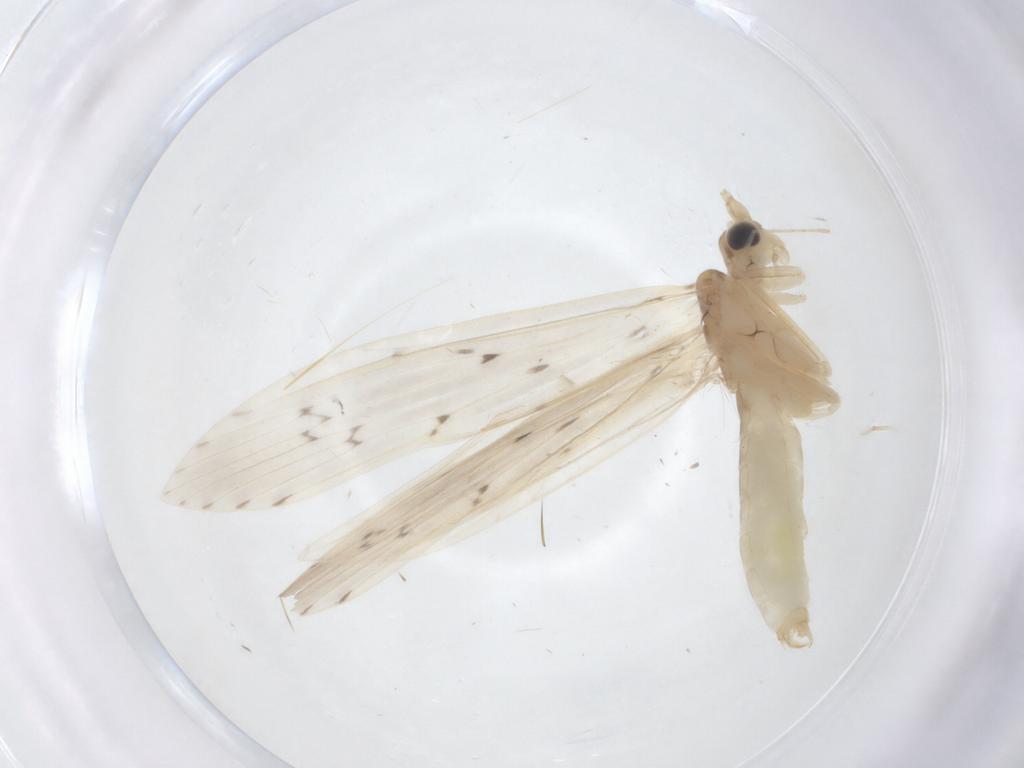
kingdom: Animalia
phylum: Arthropoda
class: Insecta
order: Trichoptera
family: Leptoceridae
